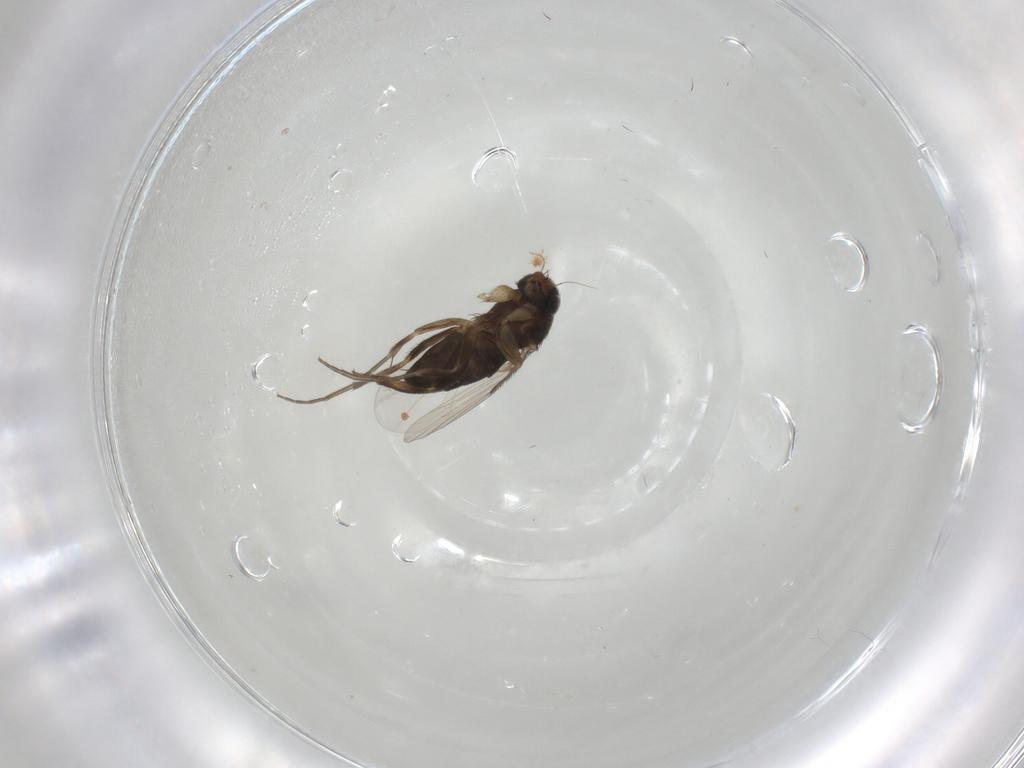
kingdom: Animalia
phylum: Arthropoda
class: Insecta
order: Diptera
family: Phoridae
